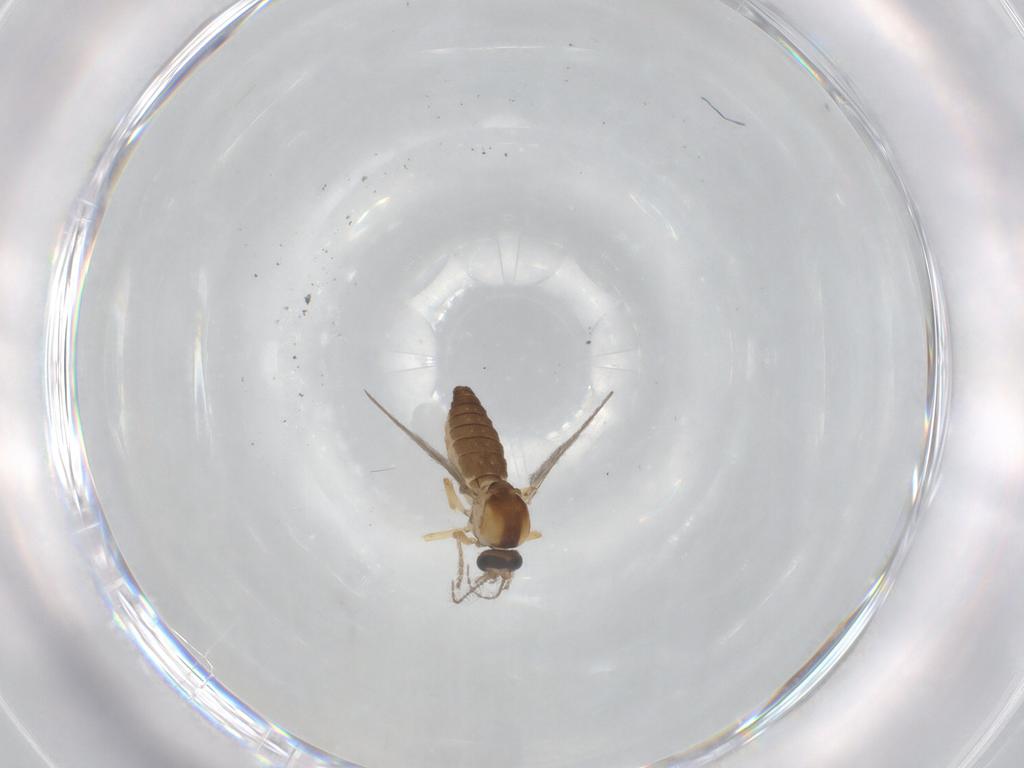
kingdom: Animalia
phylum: Arthropoda
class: Insecta
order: Diptera
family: Ceratopogonidae
